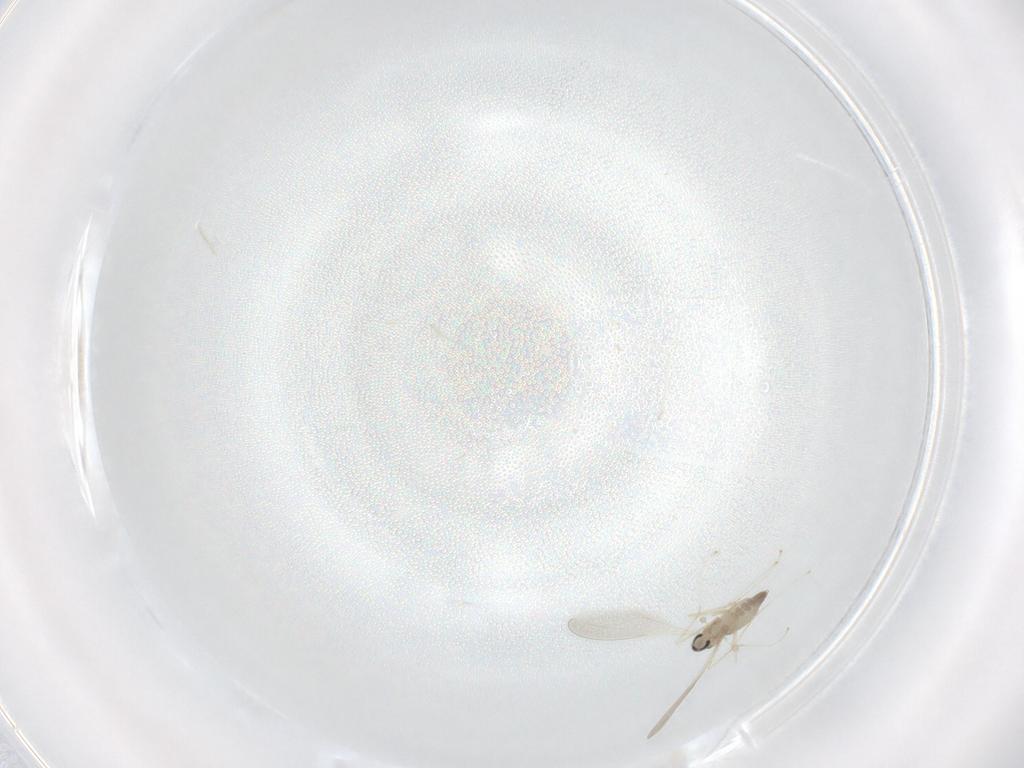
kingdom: Animalia
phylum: Arthropoda
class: Insecta
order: Diptera
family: Cecidomyiidae
